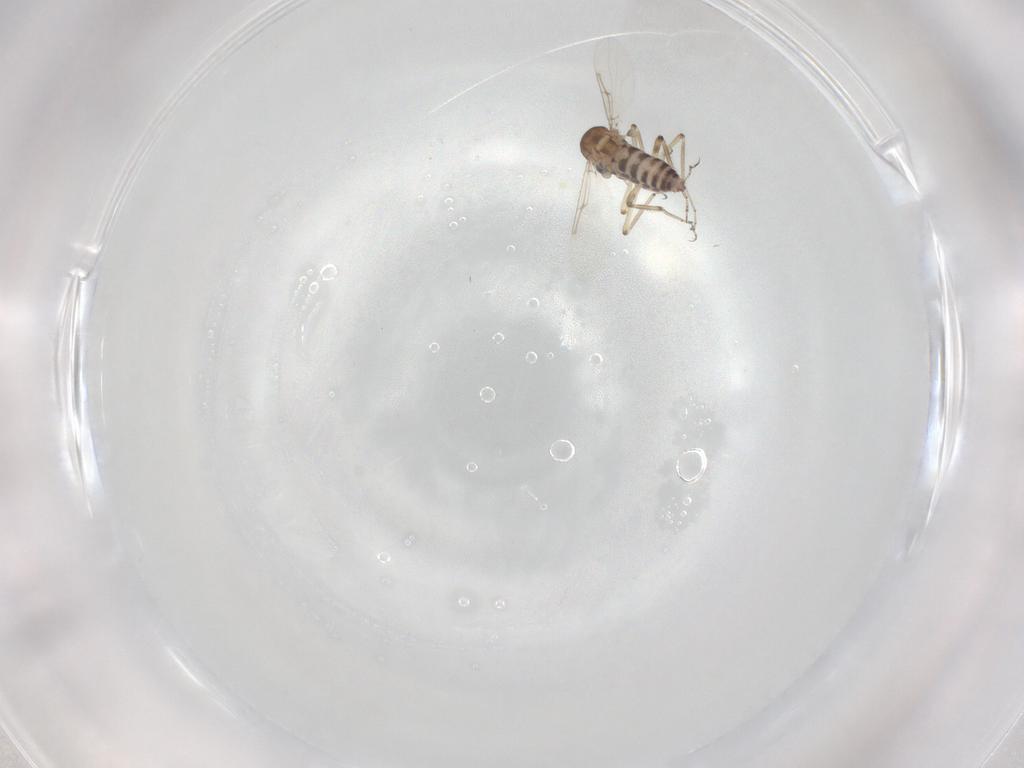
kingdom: Animalia
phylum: Arthropoda
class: Insecta
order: Diptera
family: Ceratopogonidae
